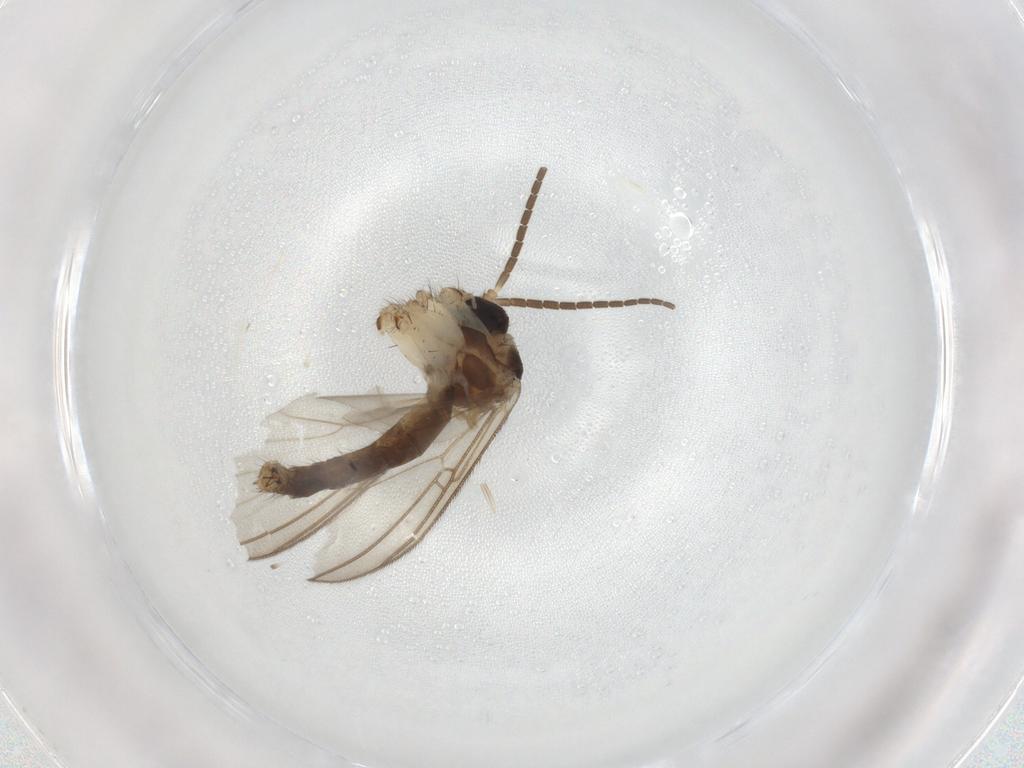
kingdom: Animalia
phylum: Arthropoda
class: Insecta
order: Diptera
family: Mycetophilidae
